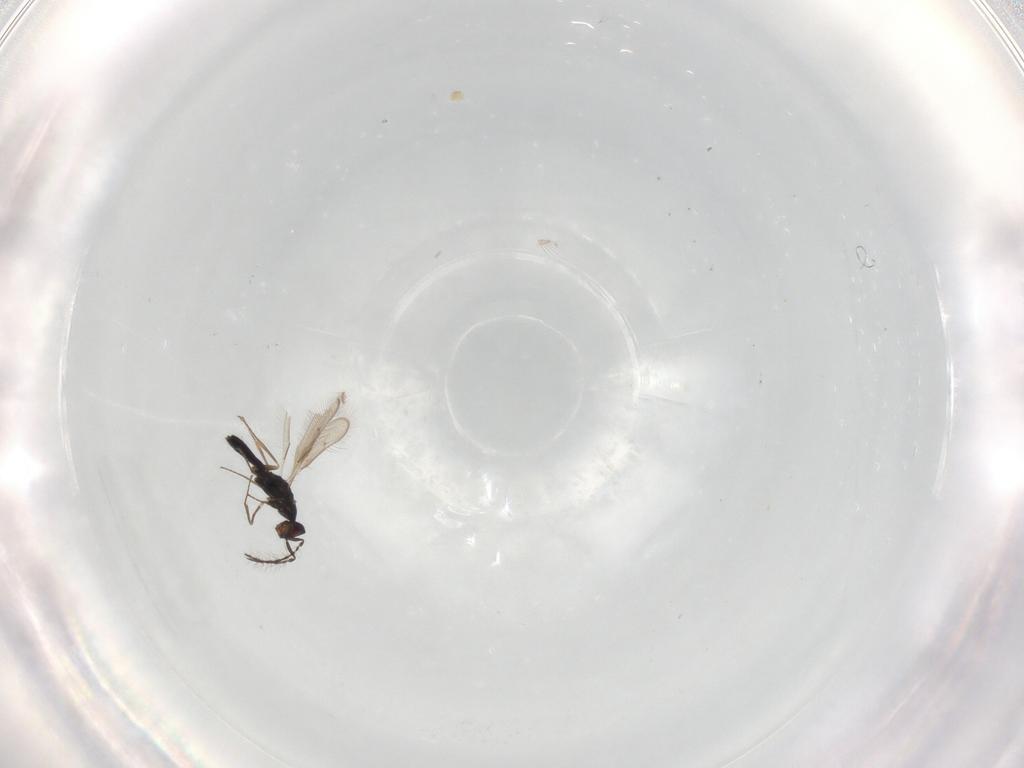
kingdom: Animalia
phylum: Arthropoda
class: Insecta
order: Hymenoptera
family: Pteromalidae
